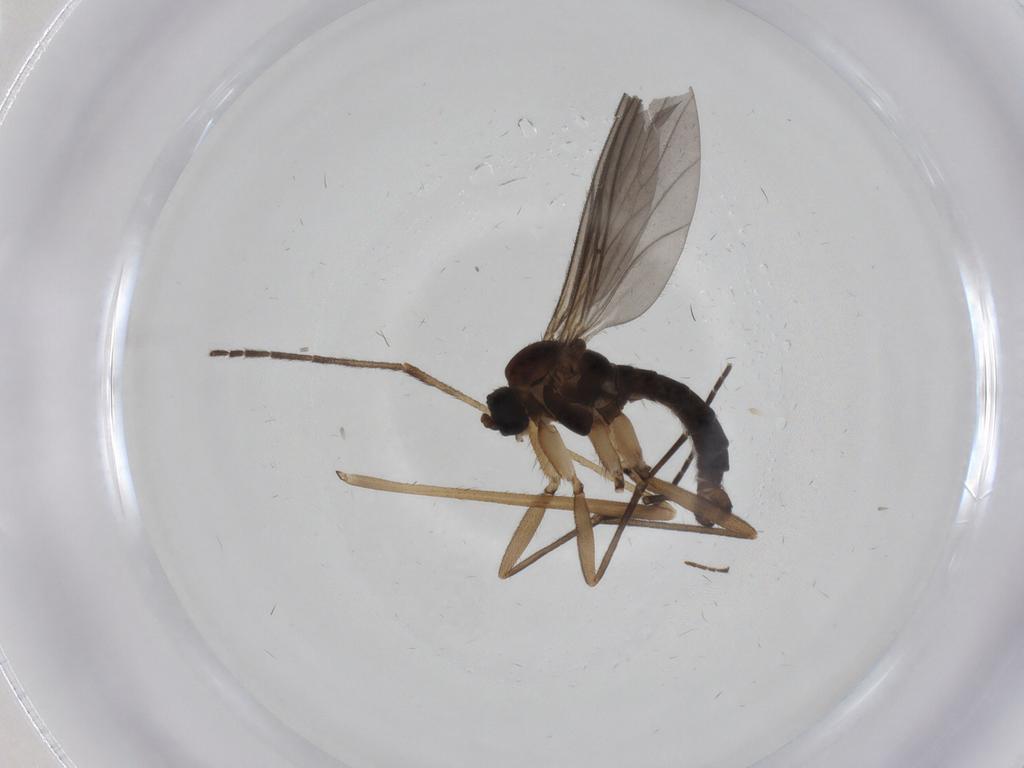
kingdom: Animalia
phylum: Arthropoda
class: Insecta
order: Diptera
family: Sciaridae
